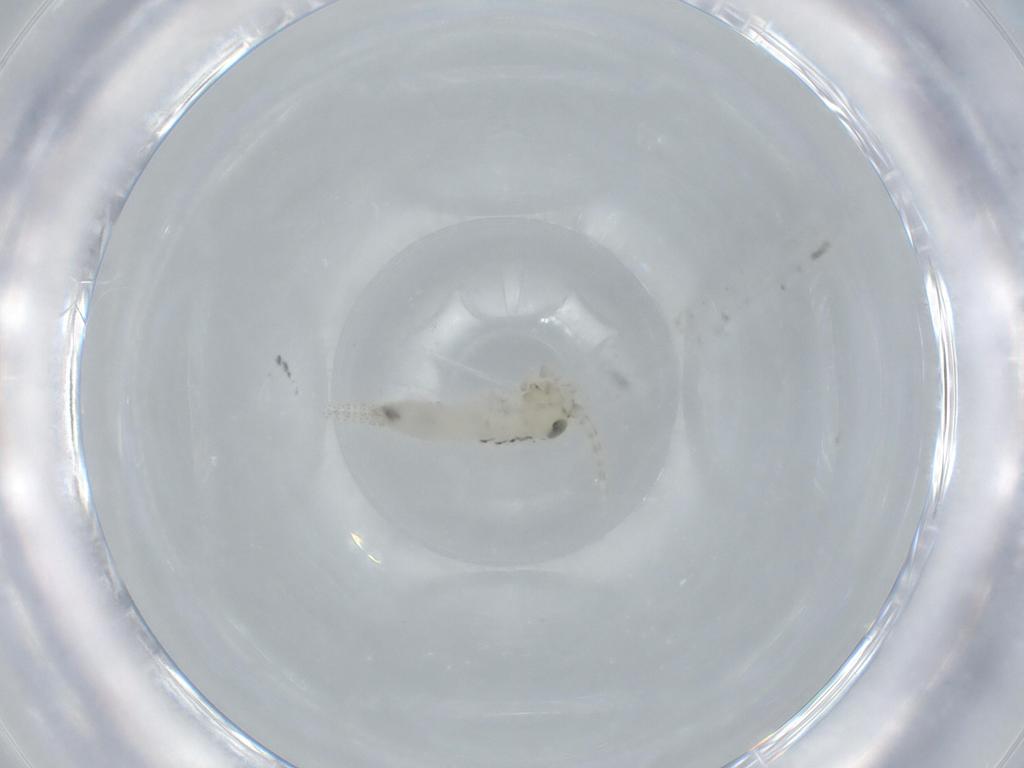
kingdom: Animalia
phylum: Arthropoda
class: Insecta
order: Orthoptera
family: Trigonidiidae
